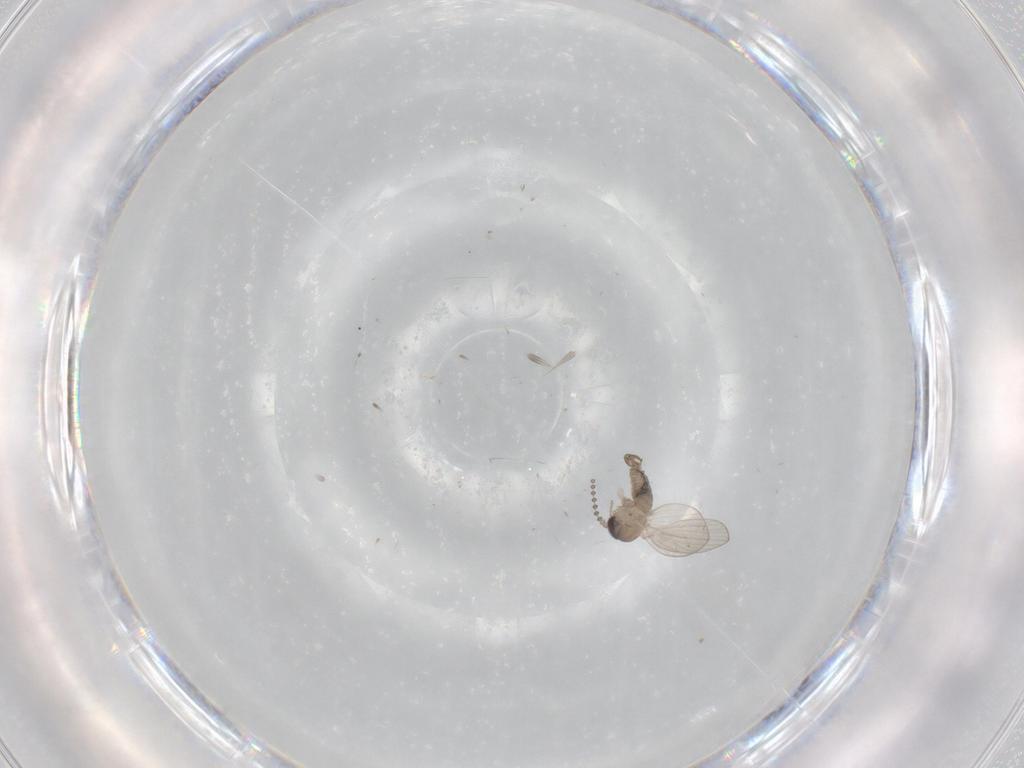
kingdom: Animalia
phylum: Arthropoda
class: Insecta
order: Diptera
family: Psychodidae
